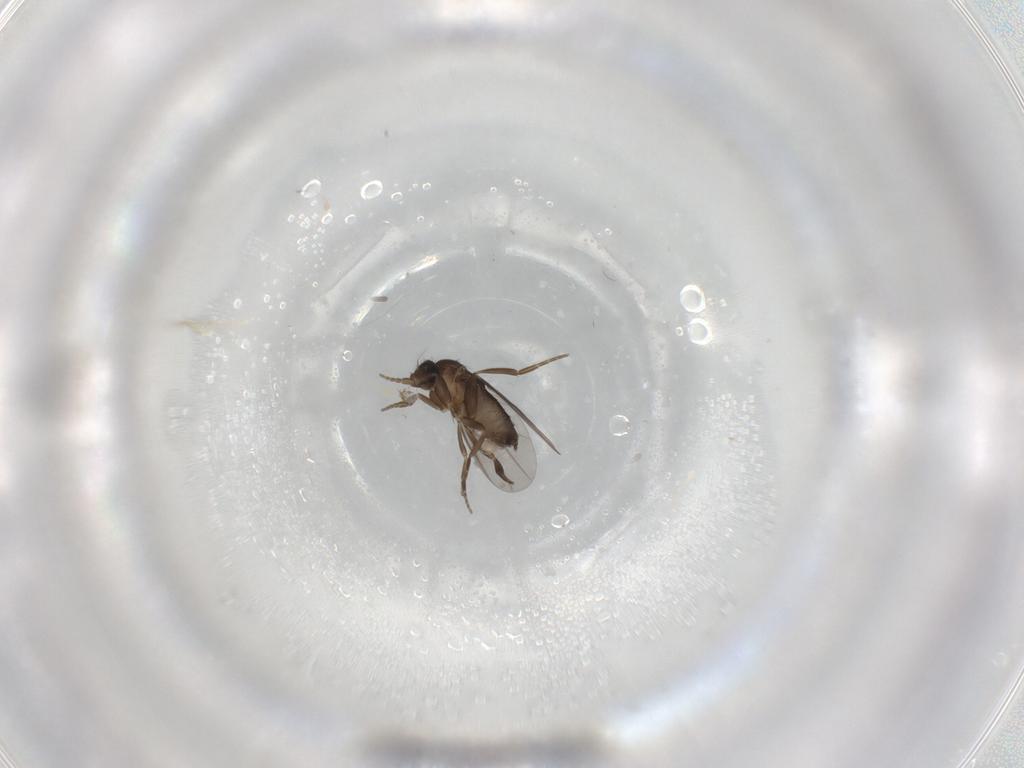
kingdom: Animalia
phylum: Arthropoda
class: Insecta
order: Diptera
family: Phoridae
